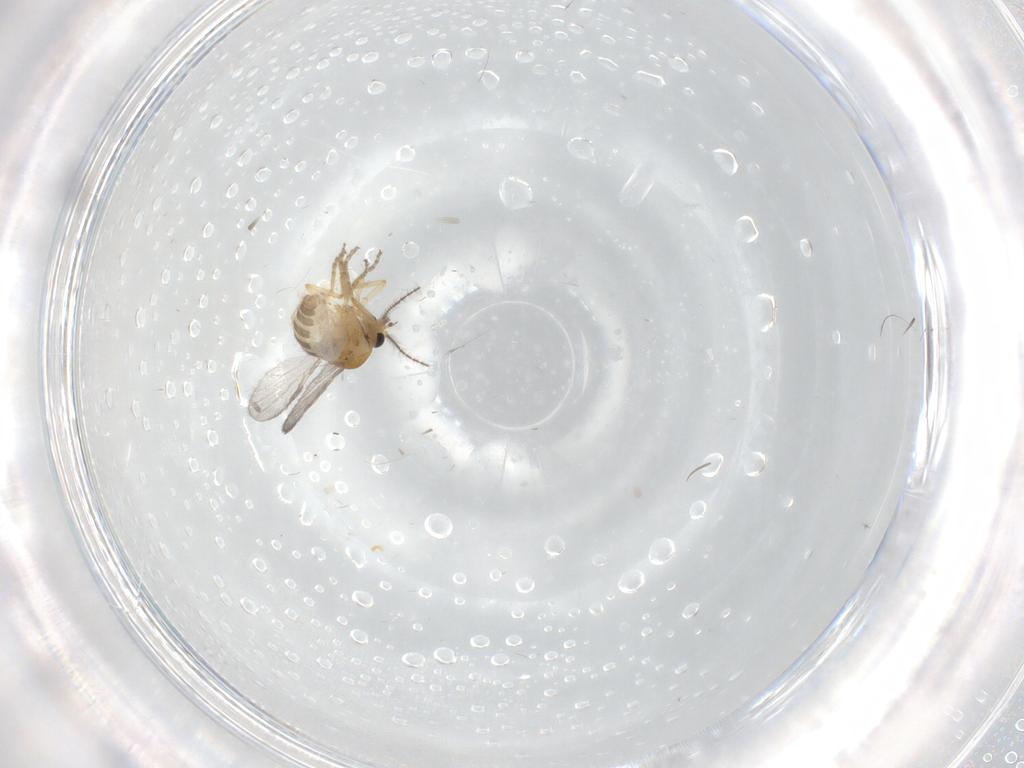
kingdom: Animalia
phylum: Arthropoda
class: Insecta
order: Diptera
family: Ceratopogonidae
